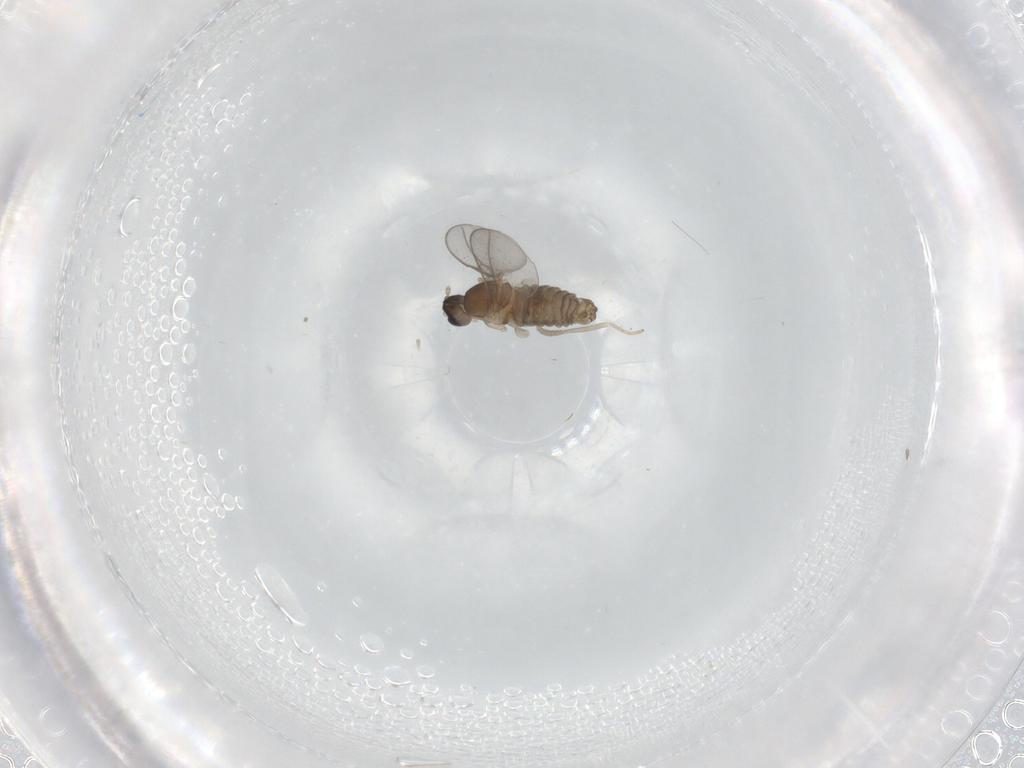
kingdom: Animalia
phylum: Arthropoda
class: Insecta
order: Diptera
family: Cecidomyiidae
